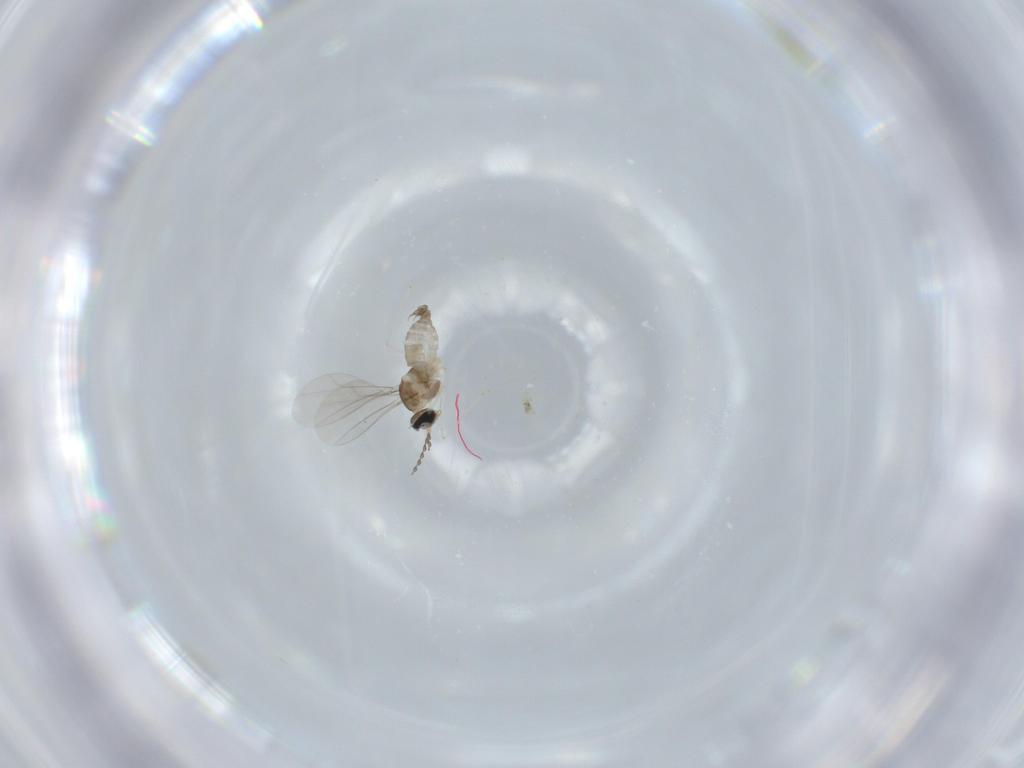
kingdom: Animalia
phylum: Arthropoda
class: Insecta
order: Diptera
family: Cecidomyiidae
